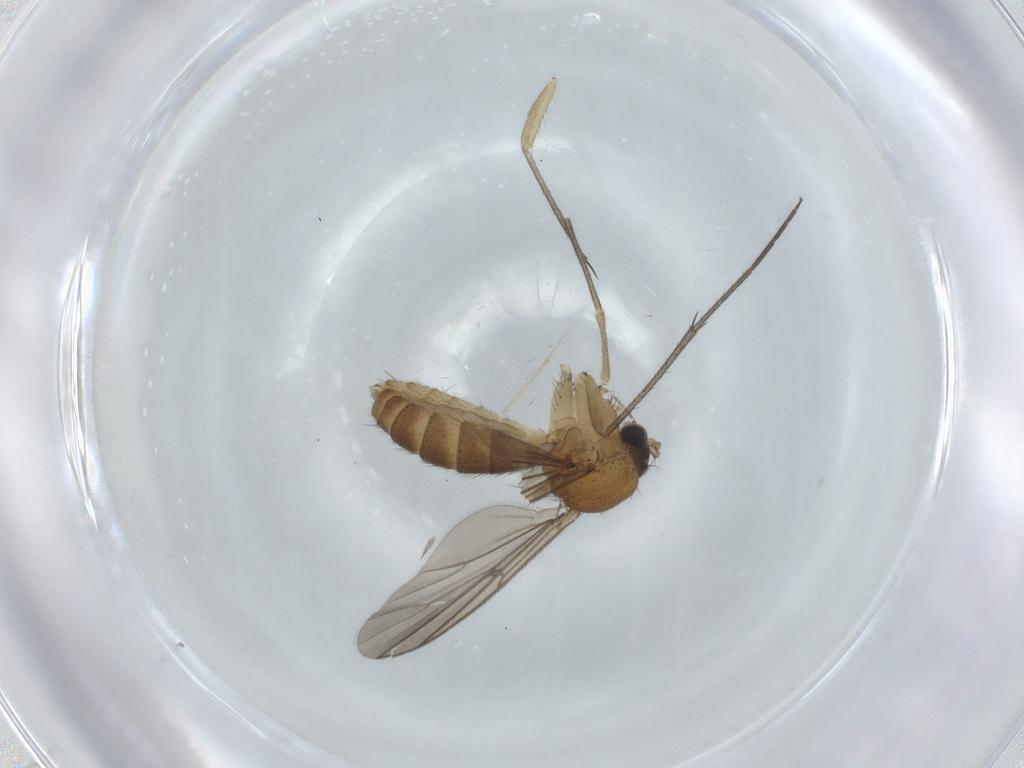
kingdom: Animalia
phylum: Arthropoda
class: Insecta
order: Diptera
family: Mycetophilidae
